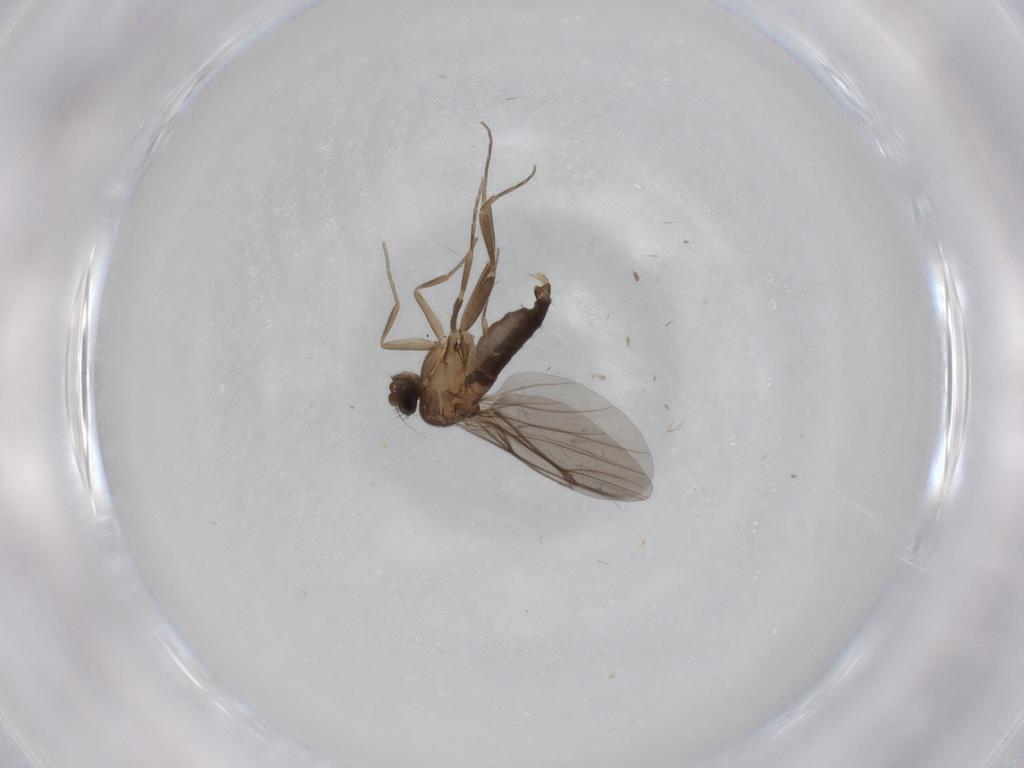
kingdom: Animalia
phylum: Arthropoda
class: Insecta
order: Diptera
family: Cecidomyiidae
